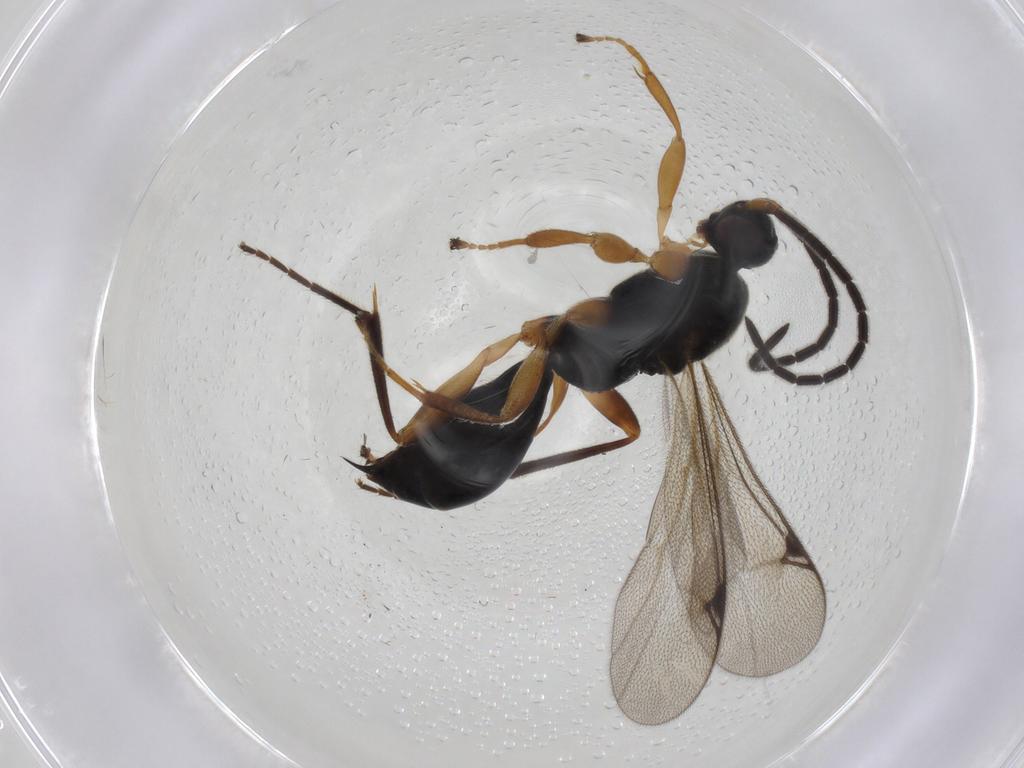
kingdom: Animalia
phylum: Arthropoda
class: Insecta
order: Hymenoptera
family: Proctotrupidae
